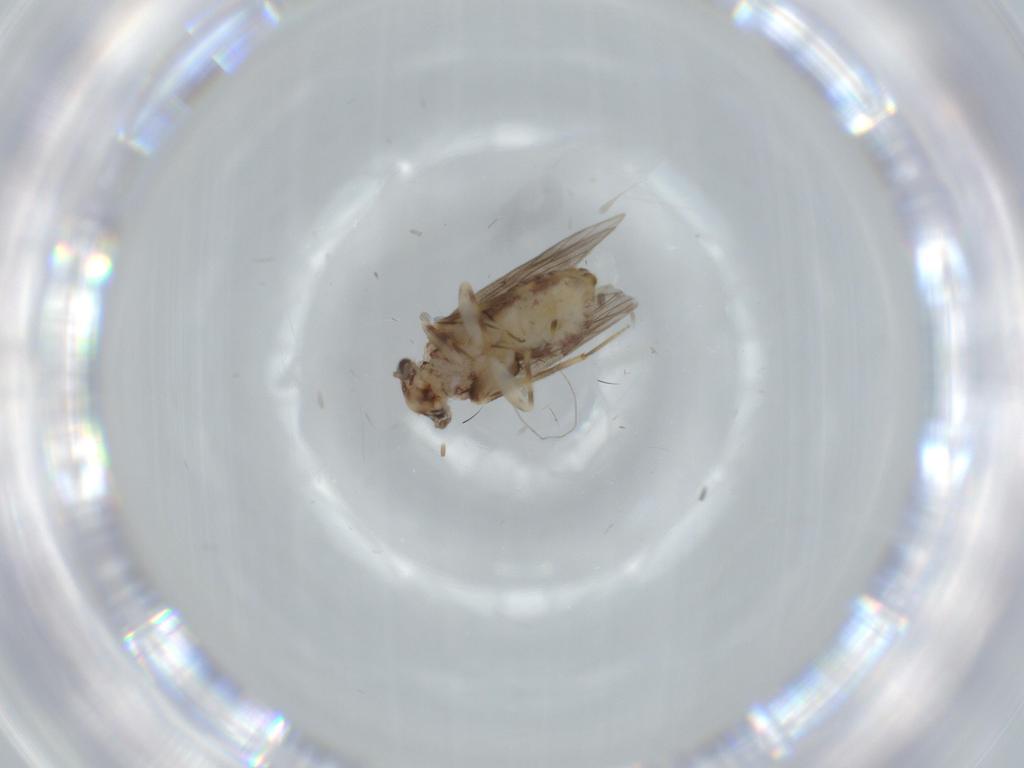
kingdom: Animalia
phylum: Arthropoda
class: Insecta
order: Psocodea
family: Lepidopsocidae
